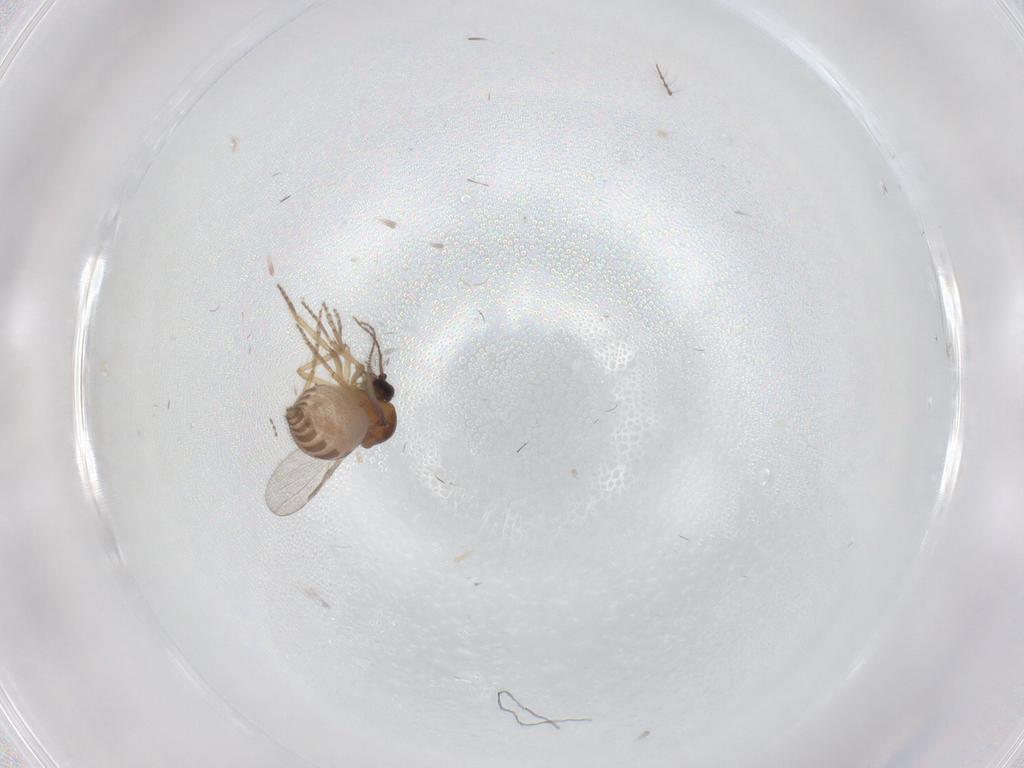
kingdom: Animalia
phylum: Arthropoda
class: Insecta
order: Diptera
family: Ceratopogonidae
